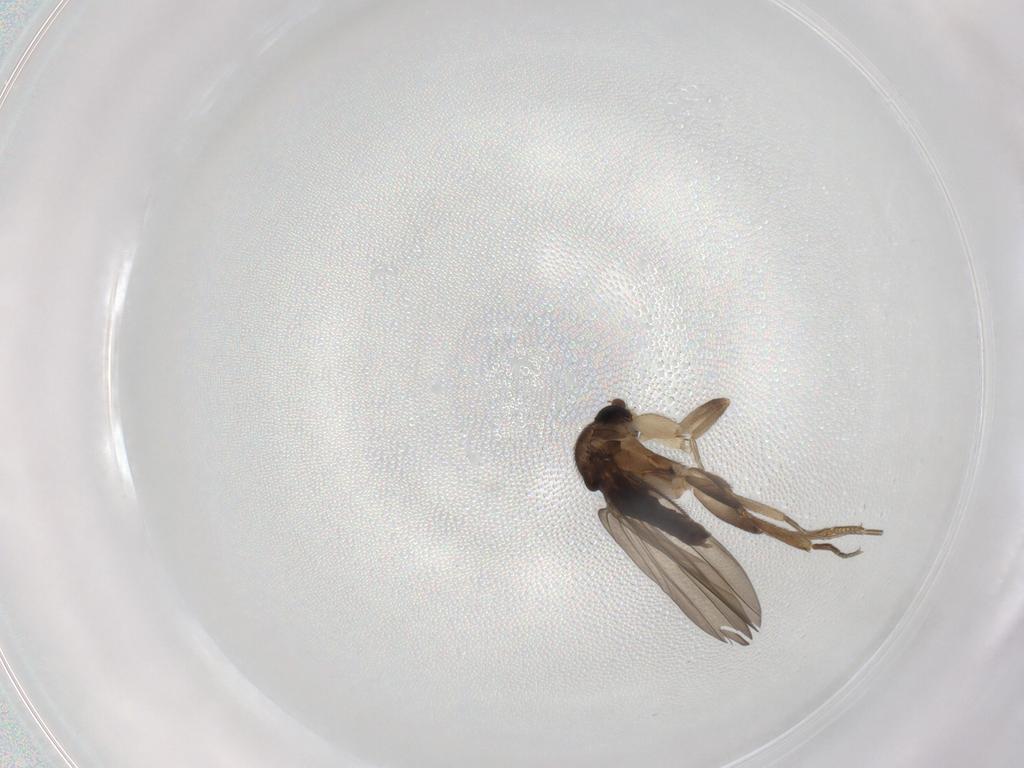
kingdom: Animalia
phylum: Arthropoda
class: Insecta
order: Diptera
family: Phoridae
